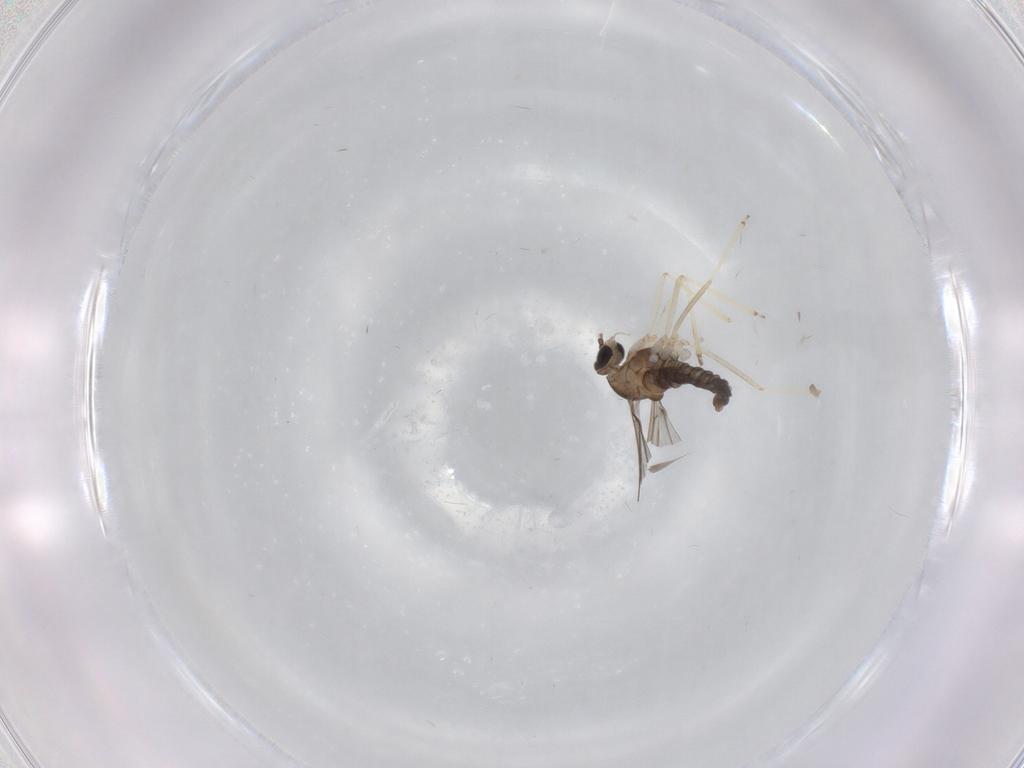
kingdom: Animalia
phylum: Arthropoda
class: Insecta
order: Diptera
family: Cecidomyiidae
